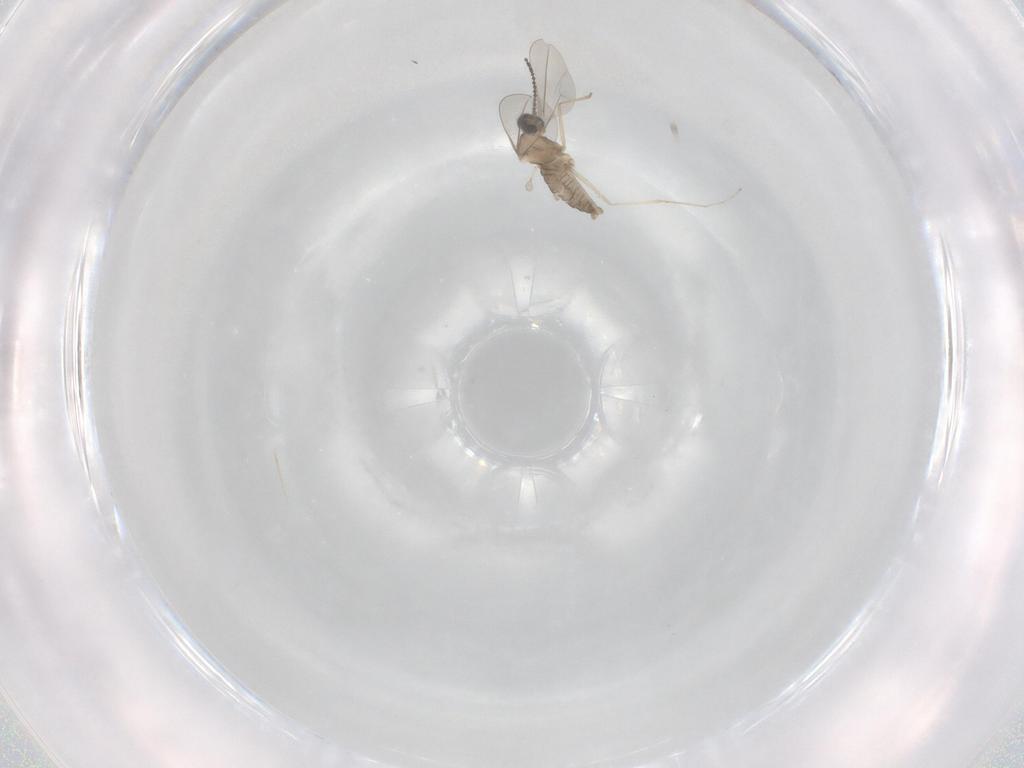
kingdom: Animalia
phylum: Arthropoda
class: Insecta
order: Diptera
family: Cecidomyiidae
